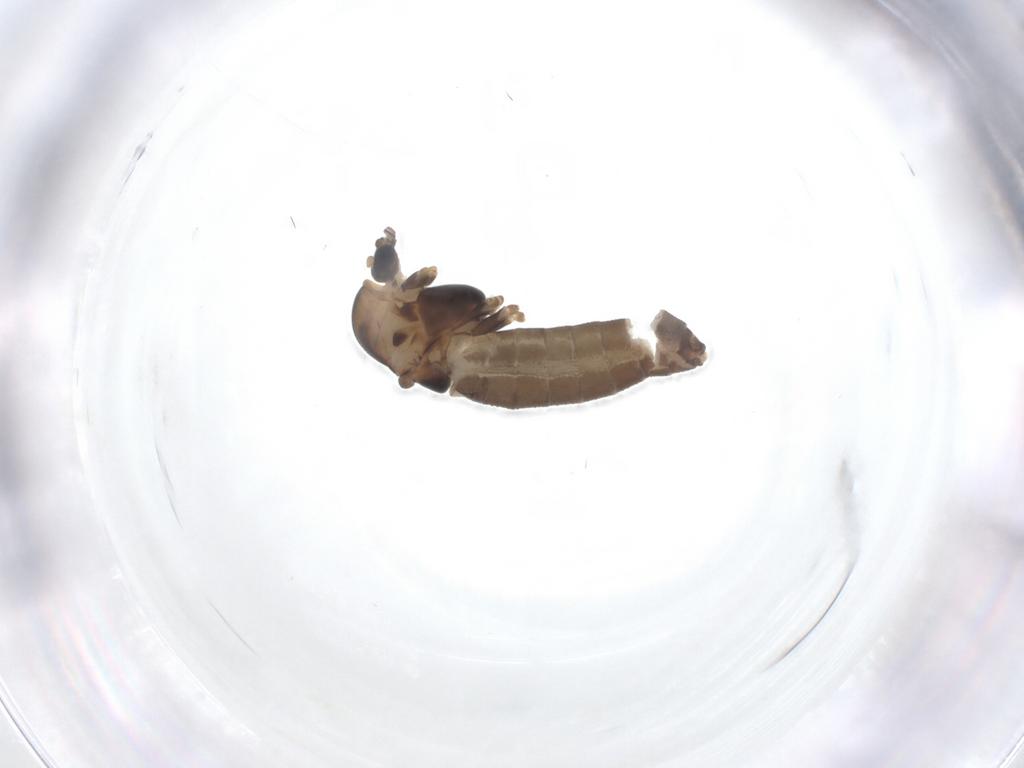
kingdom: Animalia
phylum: Arthropoda
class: Insecta
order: Diptera
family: Chironomidae
